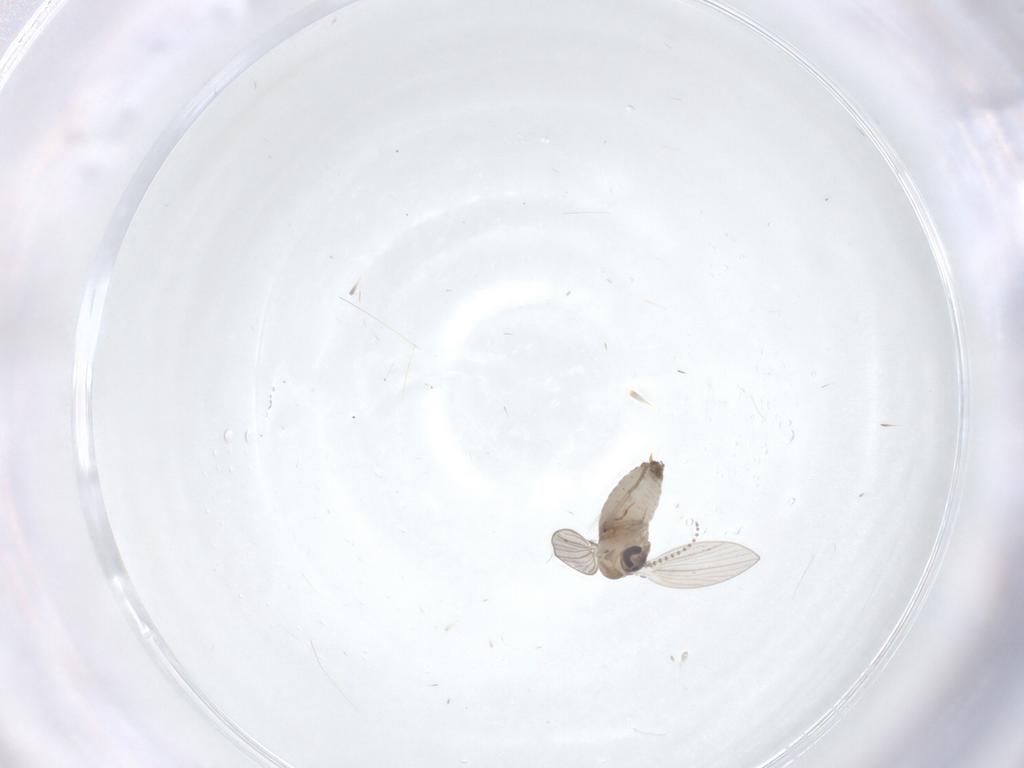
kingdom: Animalia
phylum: Arthropoda
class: Insecta
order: Diptera
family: Psychodidae
